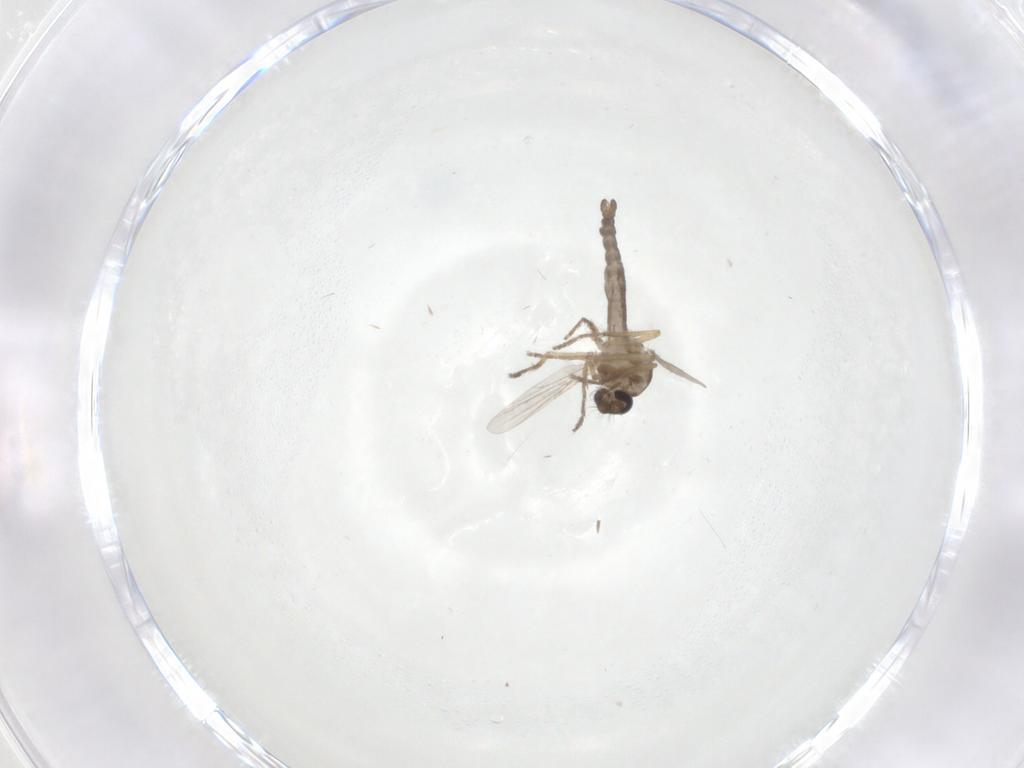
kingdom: Animalia
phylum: Arthropoda
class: Insecta
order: Diptera
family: Ceratopogonidae
